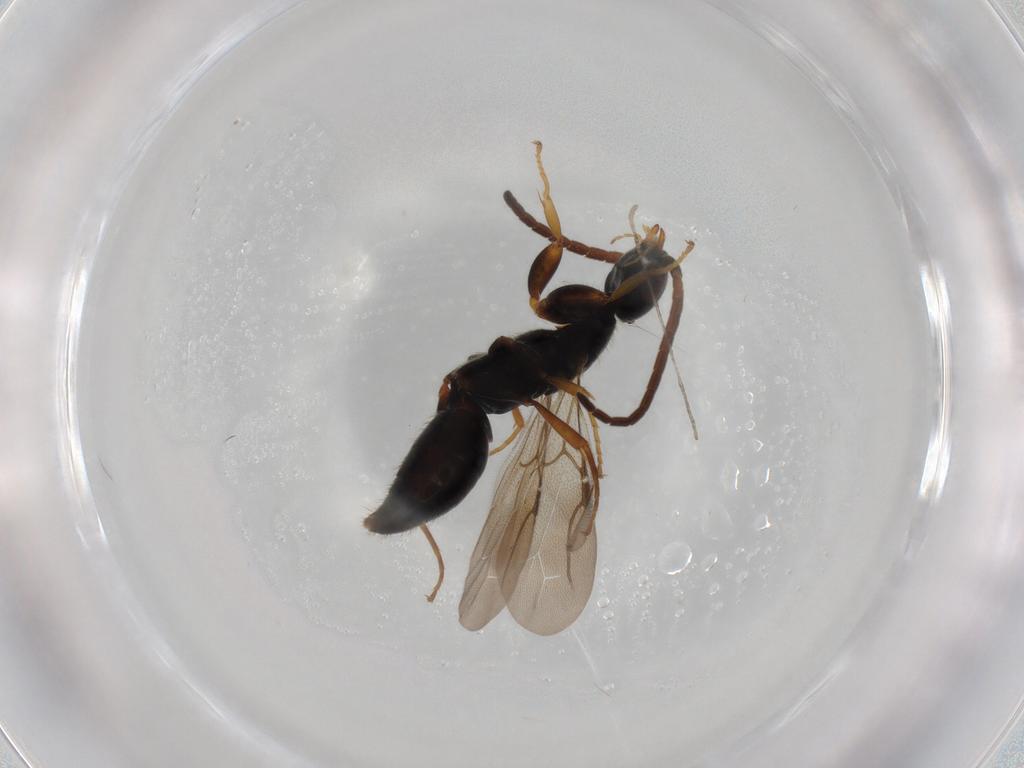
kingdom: Animalia
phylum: Arthropoda
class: Insecta
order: Hymenoptera
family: Bethylidae
